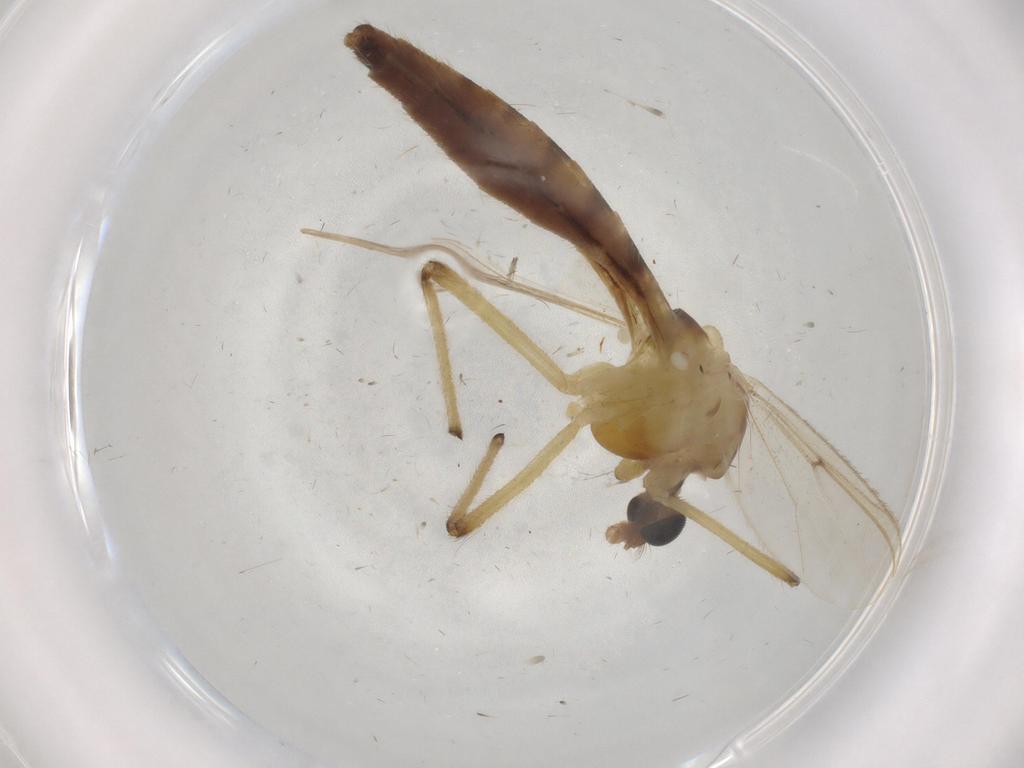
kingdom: Animalia
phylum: Arthropoda
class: Insecta
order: Diptera
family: Chironomidae
